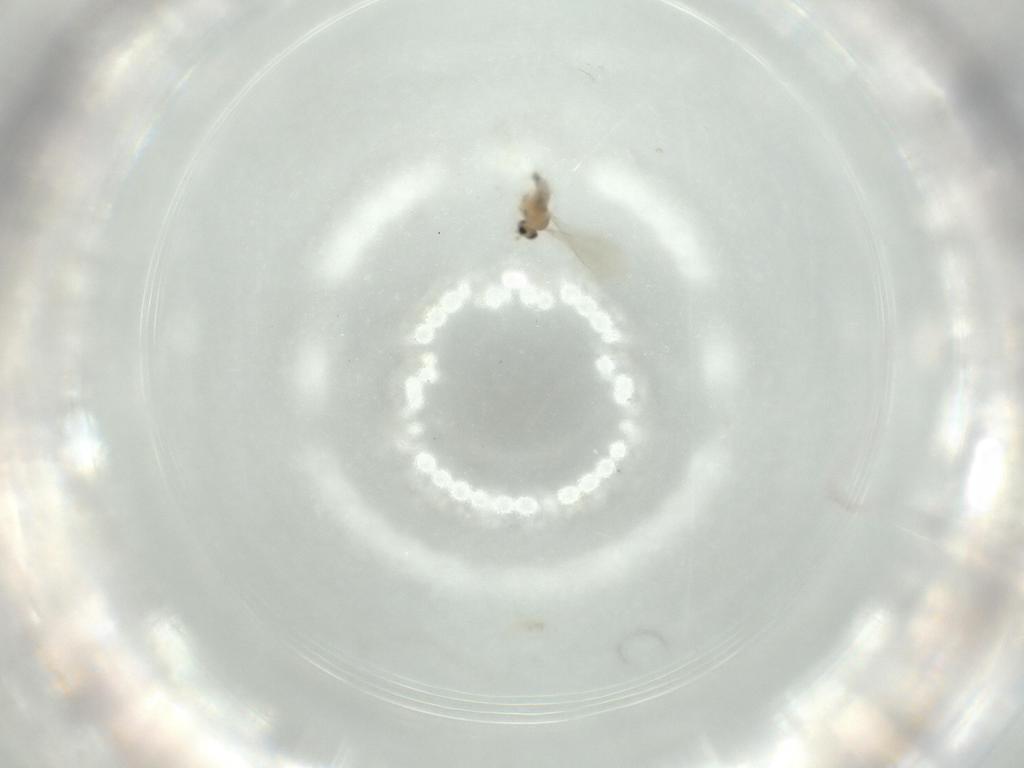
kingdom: Animalia
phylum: Arthropoda
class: Insecta
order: Diptera
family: Cecidomyiidae
